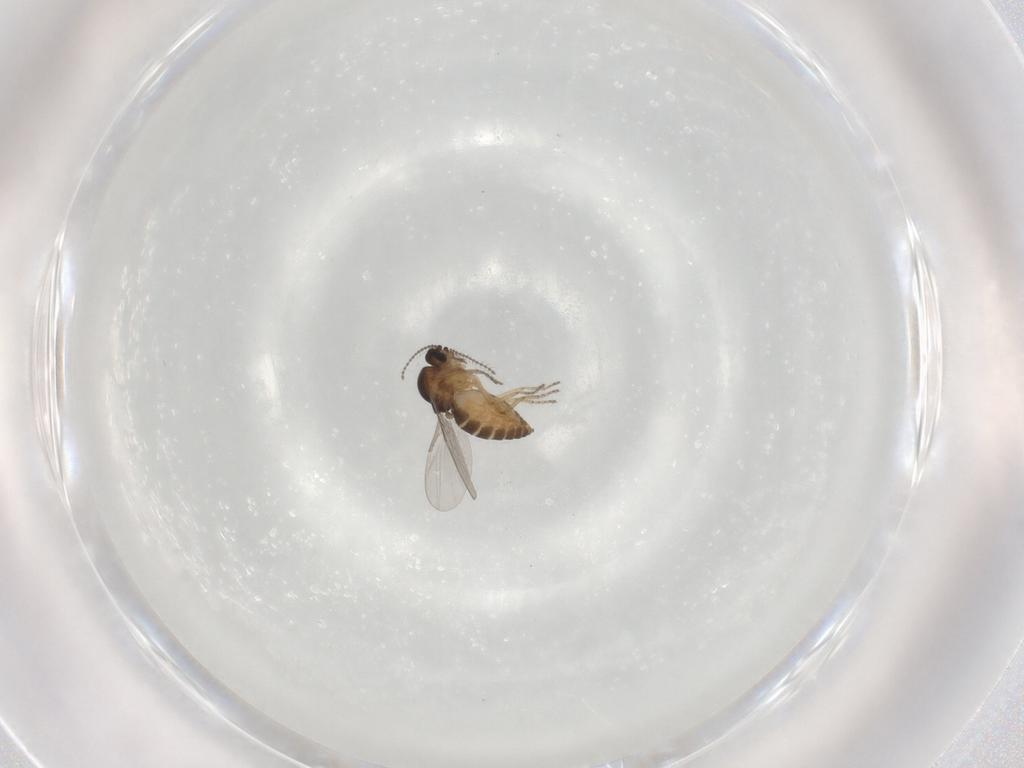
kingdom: Animalia
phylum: Arthropoda
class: Insecta
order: Diptera
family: Ceratopogonidae
